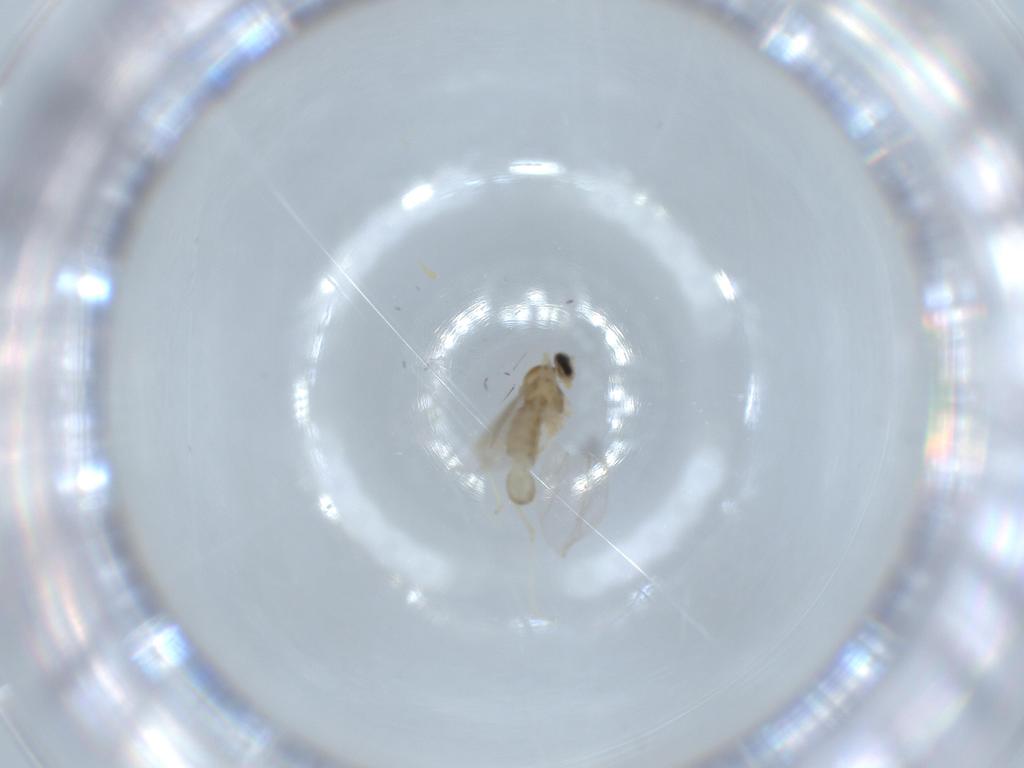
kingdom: Animalia
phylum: Arthropoda
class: Insecta
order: Diptera
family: Cecidomyiidae
